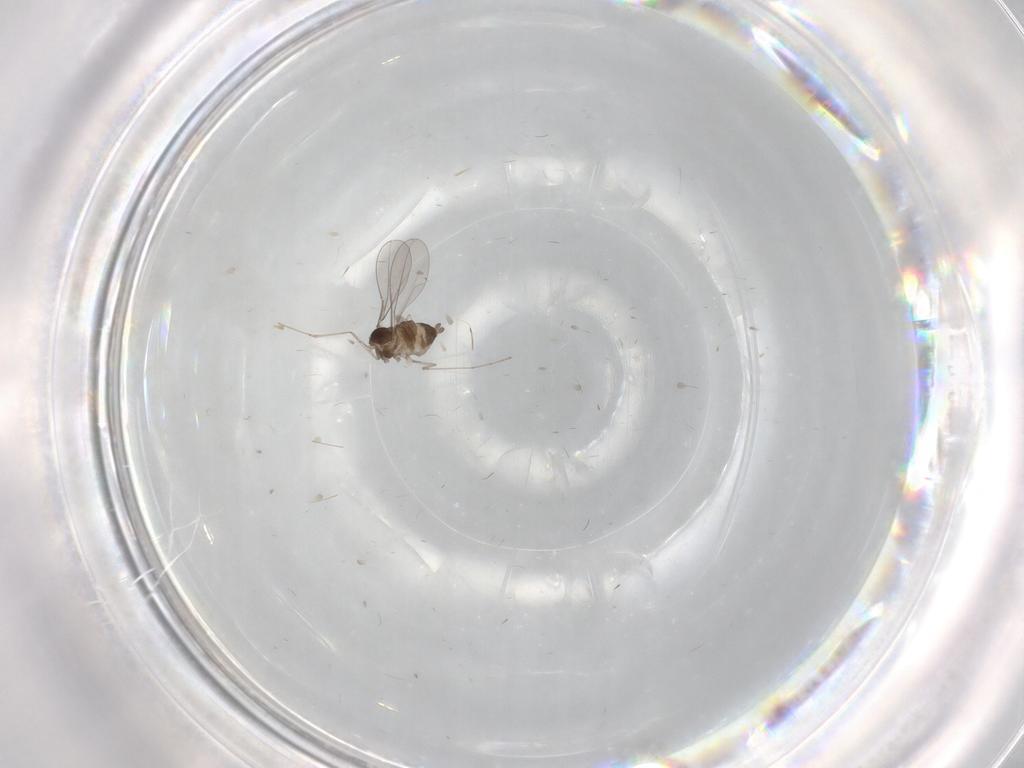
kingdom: Animalia
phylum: Arthropoda
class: Insecta
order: Diptera
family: Cecidomyiidae
